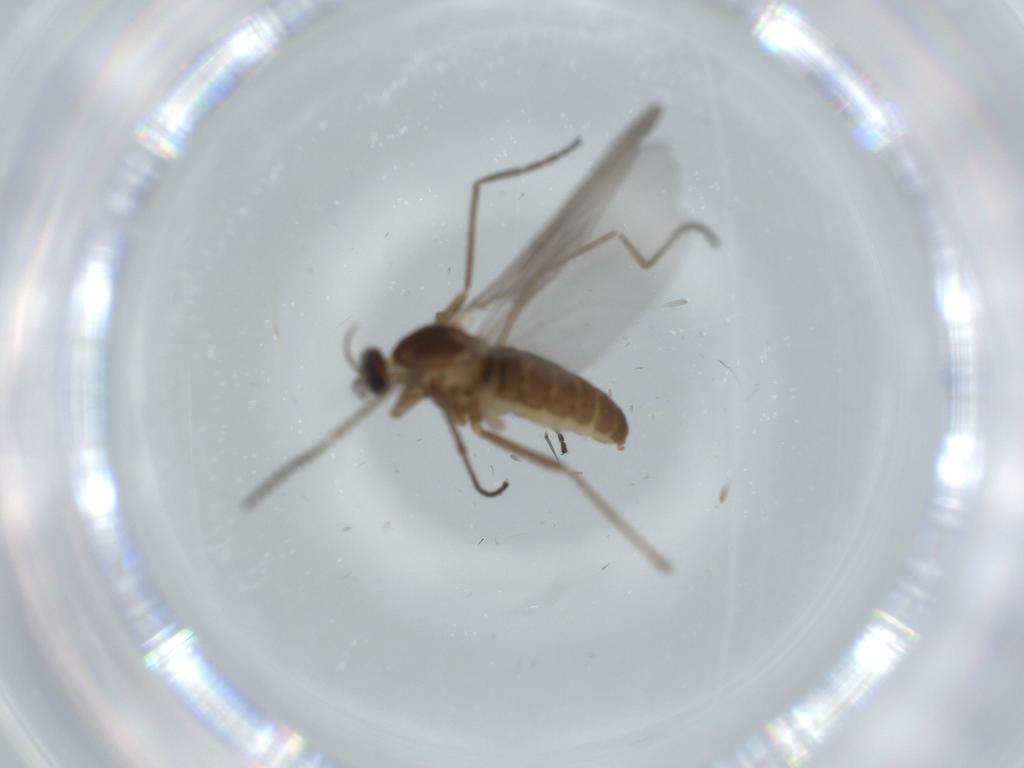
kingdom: Animalia
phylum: Arthropoda
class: Insecta
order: Diptera
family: Cecidomyiidae
